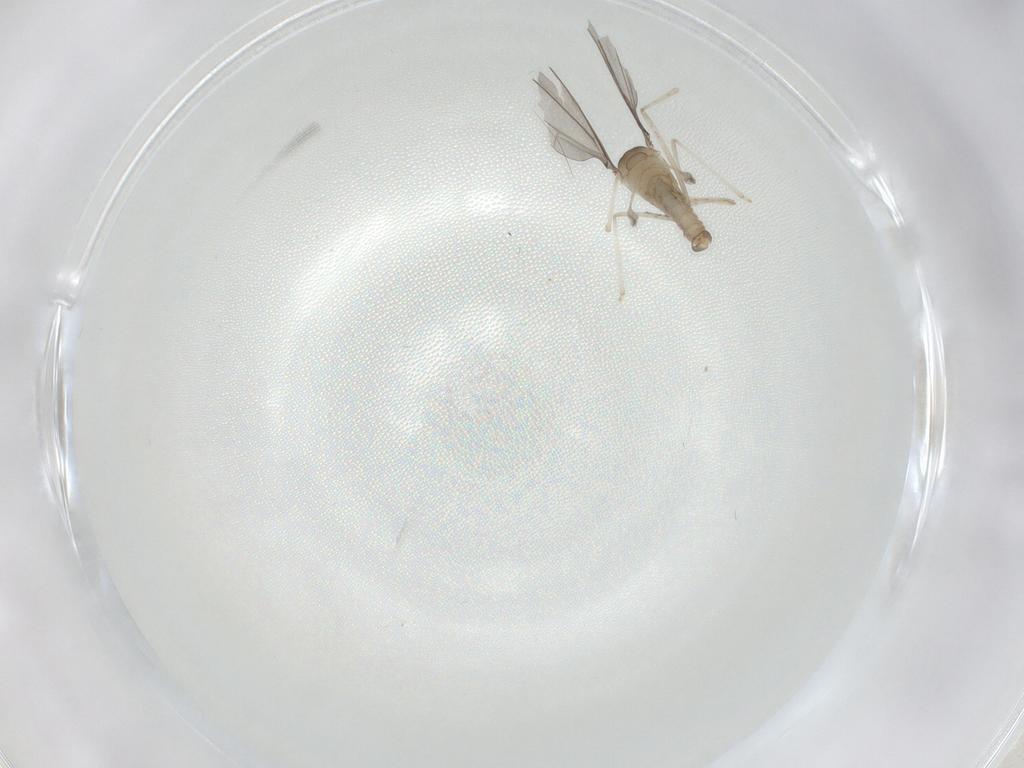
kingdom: Animalia
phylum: Arthropoda
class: Insecta
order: Diptera
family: Cecidomyiidae
